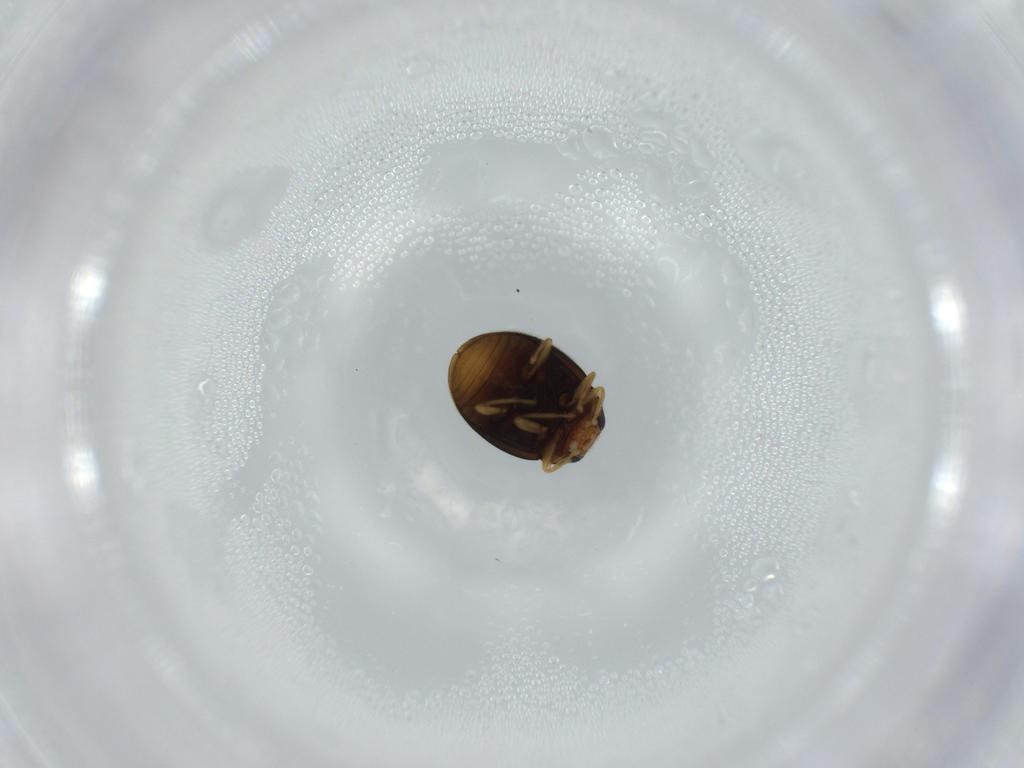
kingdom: Animalia
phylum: Arthropoda
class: Insecta
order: Coleoptera
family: Coccinellidae
